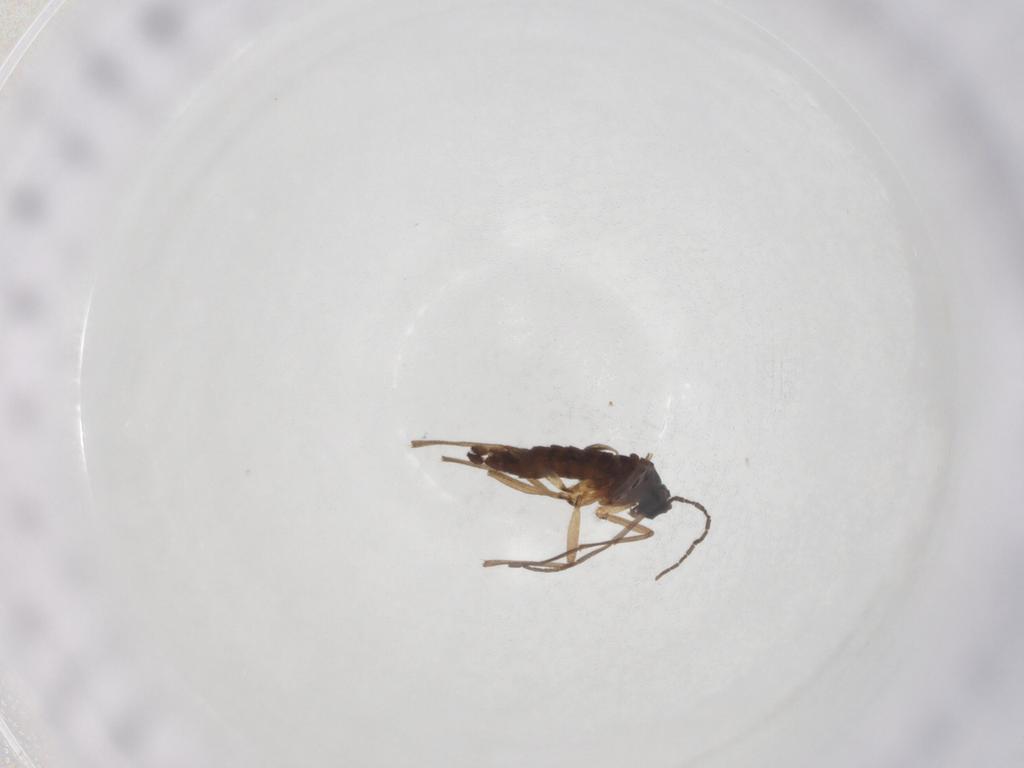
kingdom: Animalia
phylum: Arthropoda
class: Insecta
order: Diptera
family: Sciaridae
